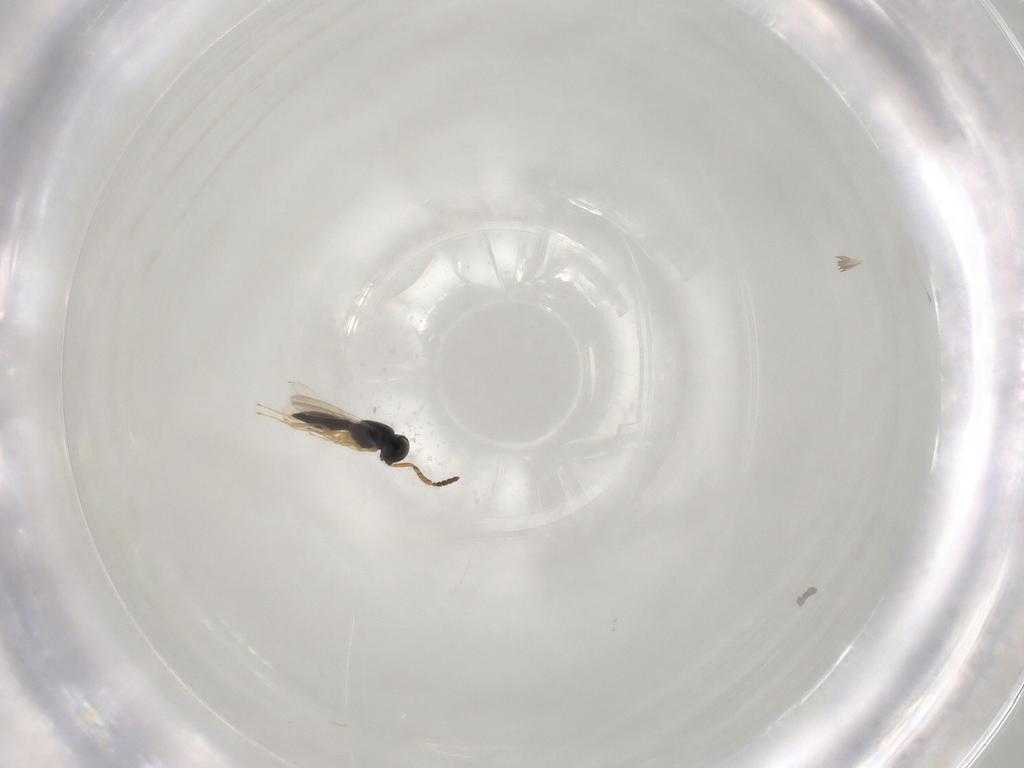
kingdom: Animalia
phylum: Arthropoda
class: Insecta
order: Hymenoptera
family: Scelionidae
